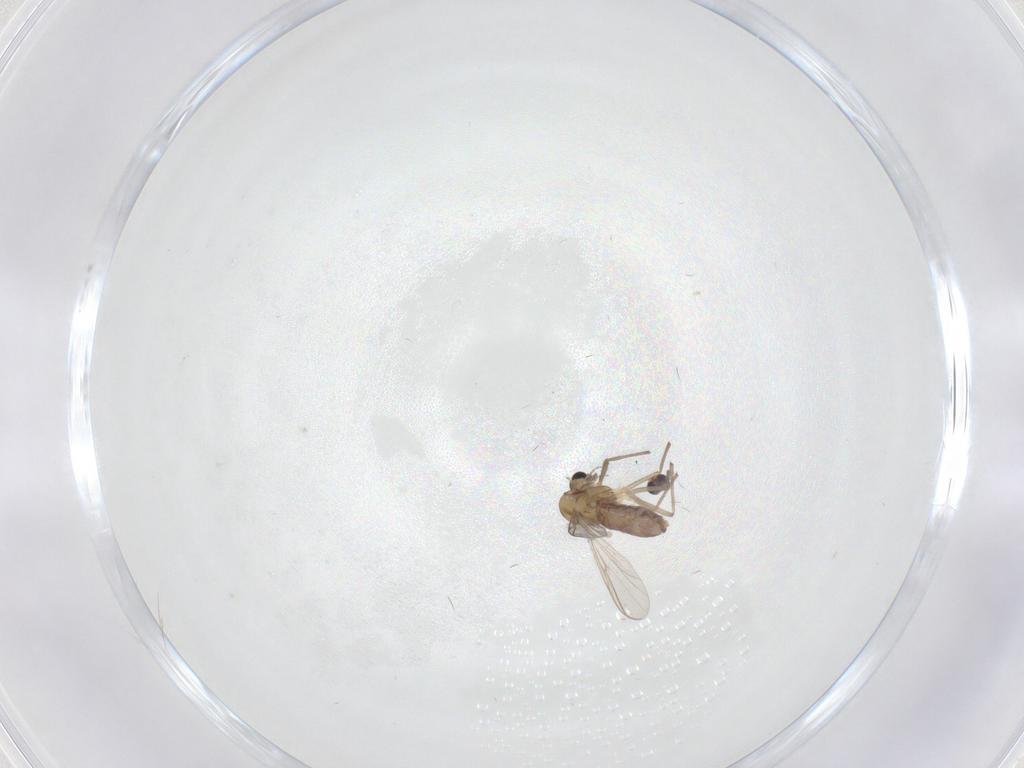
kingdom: Animalia
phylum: Arthropoda
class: Insecta
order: Diptera
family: Chironomidae
